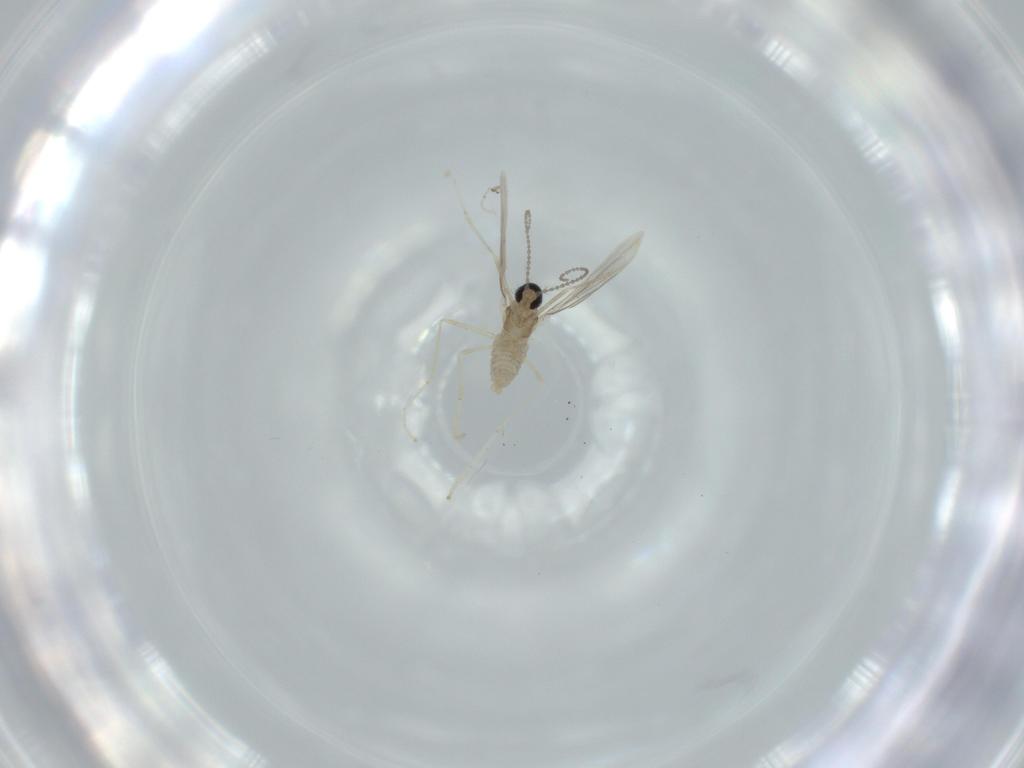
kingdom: Animalia
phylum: Arthropoda
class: Insecta
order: Diptera
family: Cecidomyiidae
